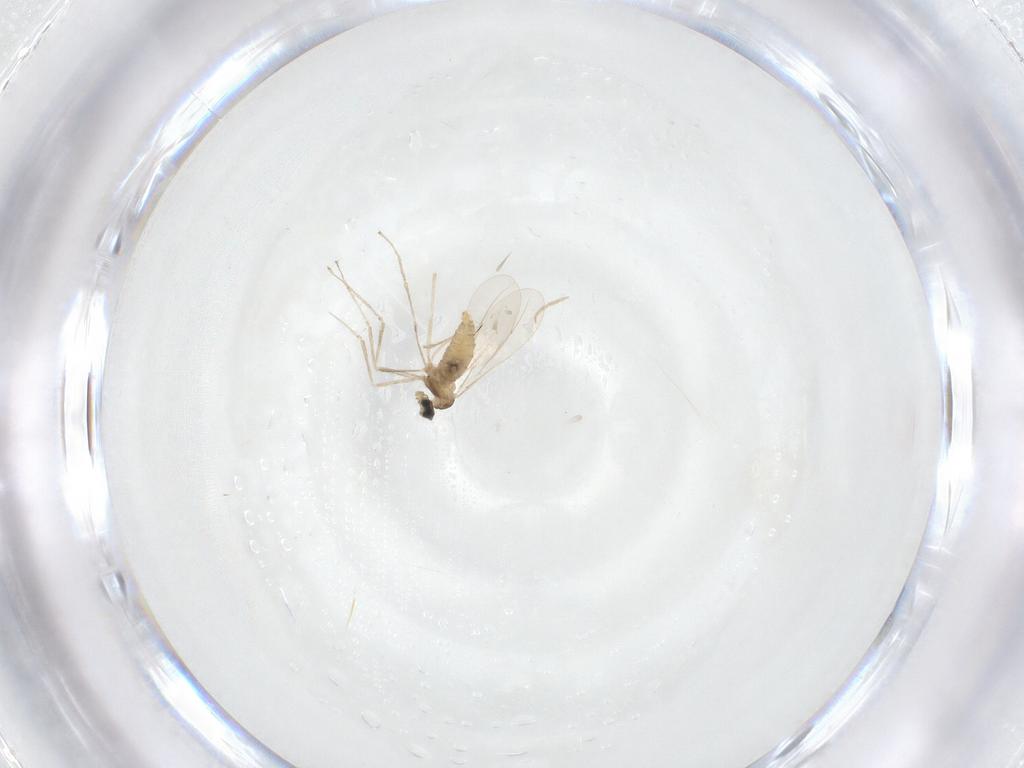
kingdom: Animalia
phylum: Arthropoda
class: Insecta
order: Diptera
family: Cecidomyiidae
